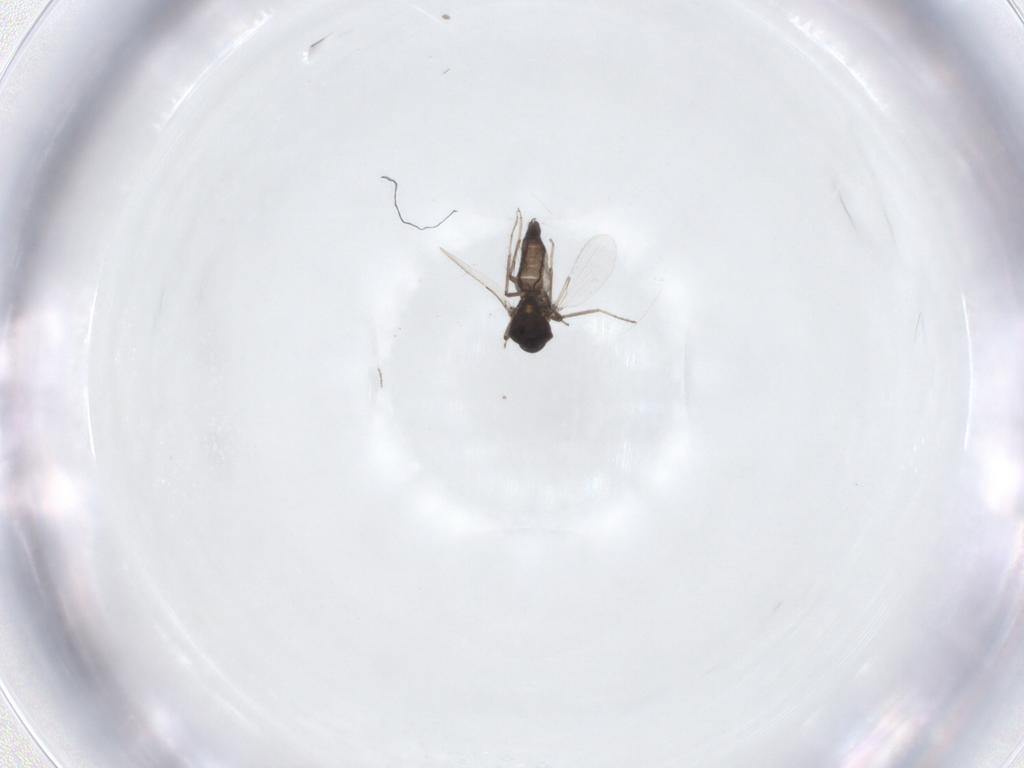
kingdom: Animalia
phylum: Arthropoda
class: Insecta
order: Diptera
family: Ceratopogonidae
